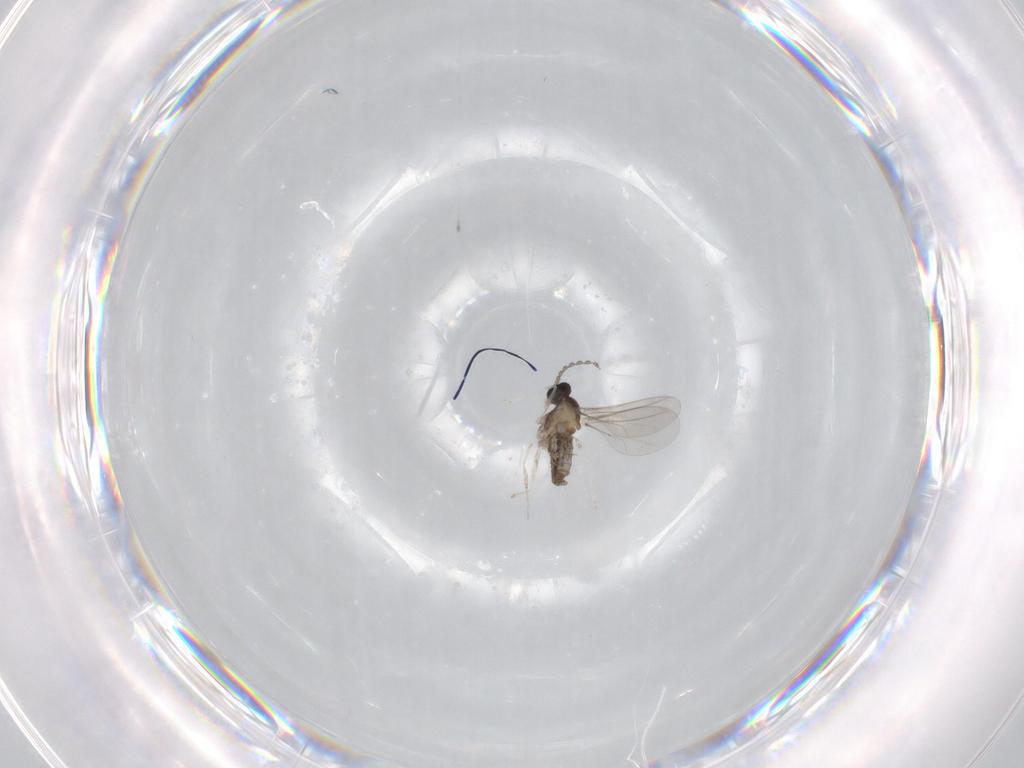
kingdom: Animalia
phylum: Arthropoda
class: Insecta
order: Diptera
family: Cecidomyiidae
